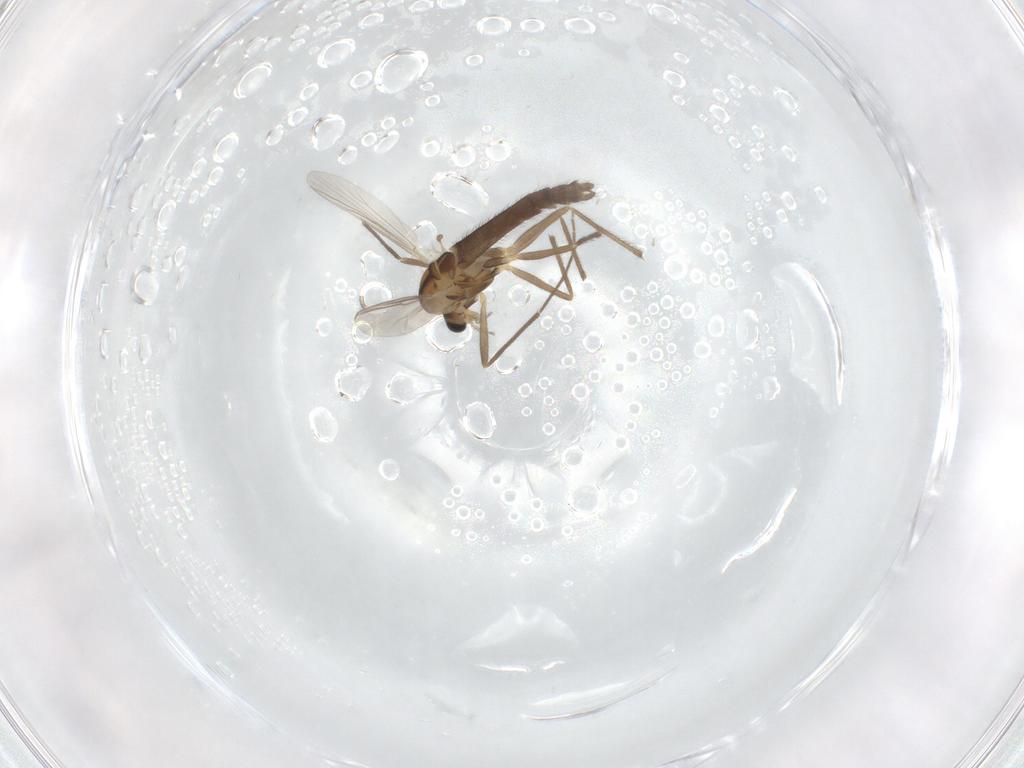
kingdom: Animalia
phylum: Arthropoda
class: Insecta
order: Diptera
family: Chironomidae
